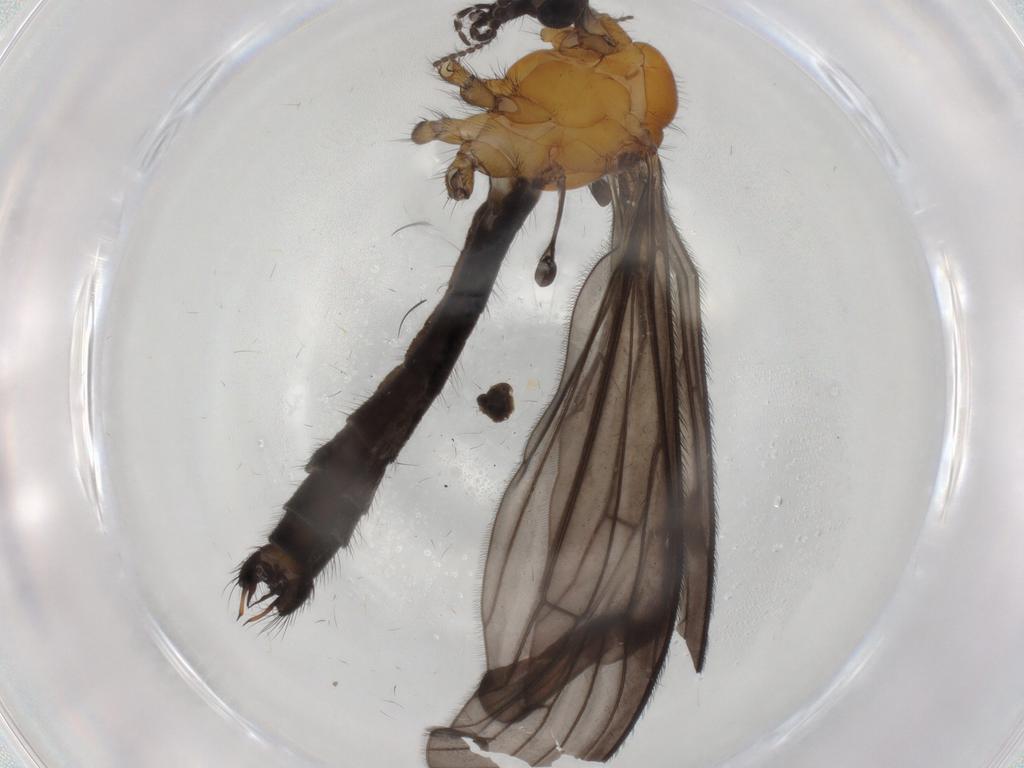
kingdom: Animalia
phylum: Arthropoda
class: Insecta
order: Diptera
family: Limoniidae
